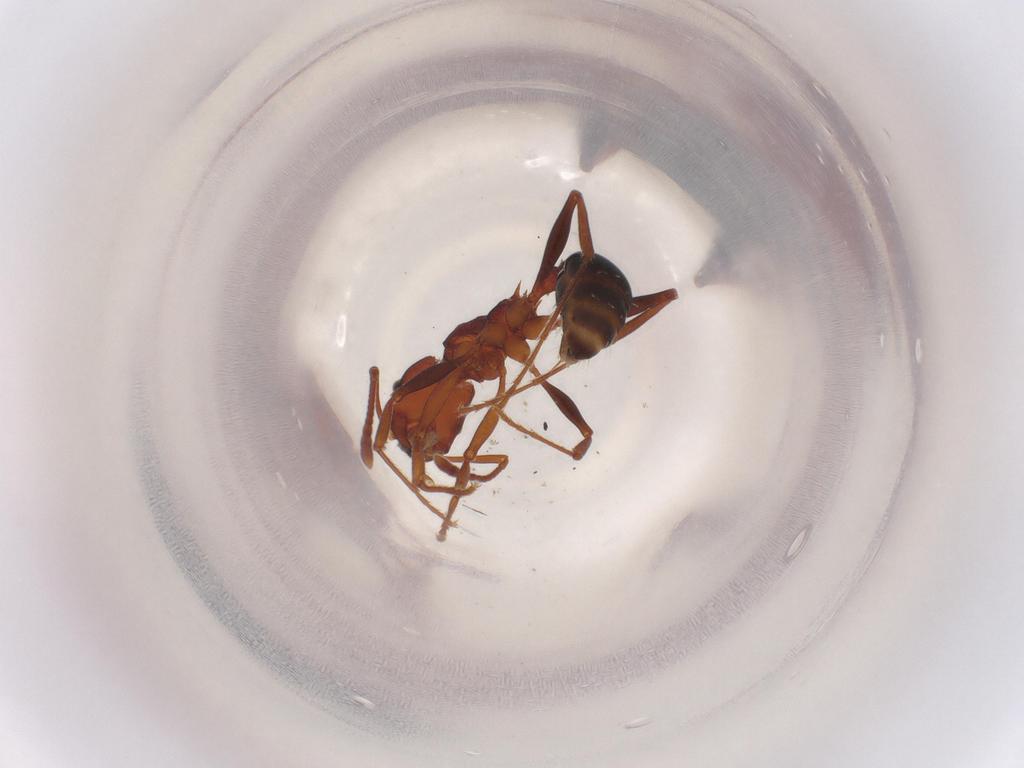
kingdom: Animalia
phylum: Arthropoda
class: Insecta
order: Hymenoptera
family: Formicidae
